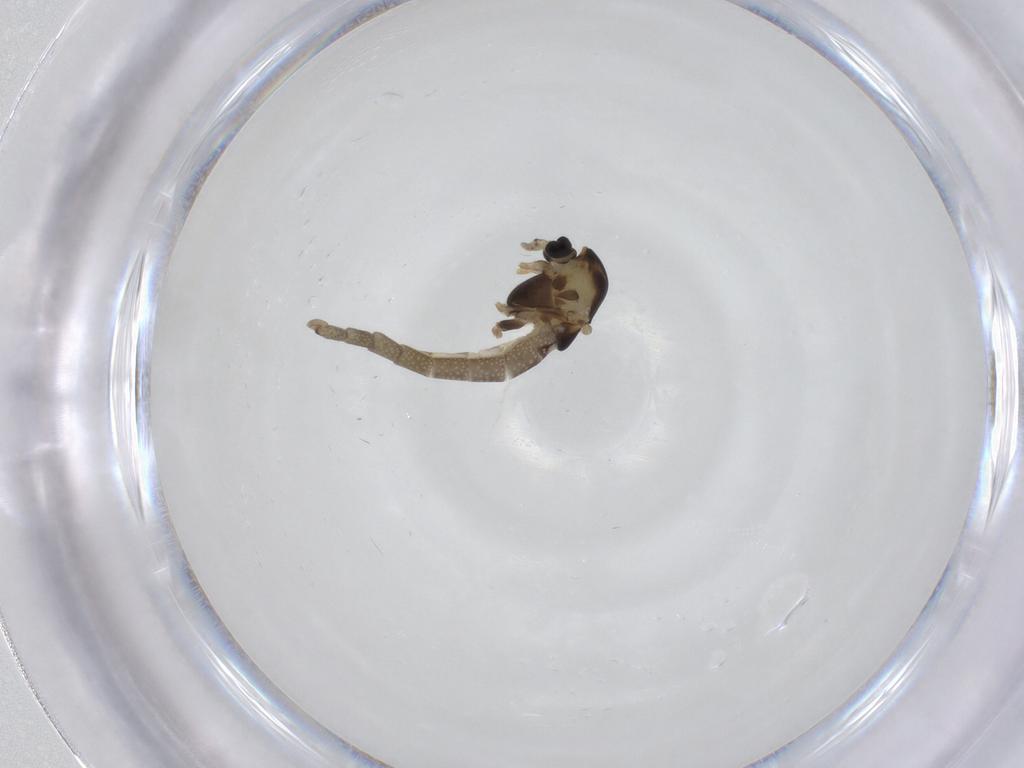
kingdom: Animalia
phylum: Arthropoda
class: Insecta
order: Diptera
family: Chironomidae
